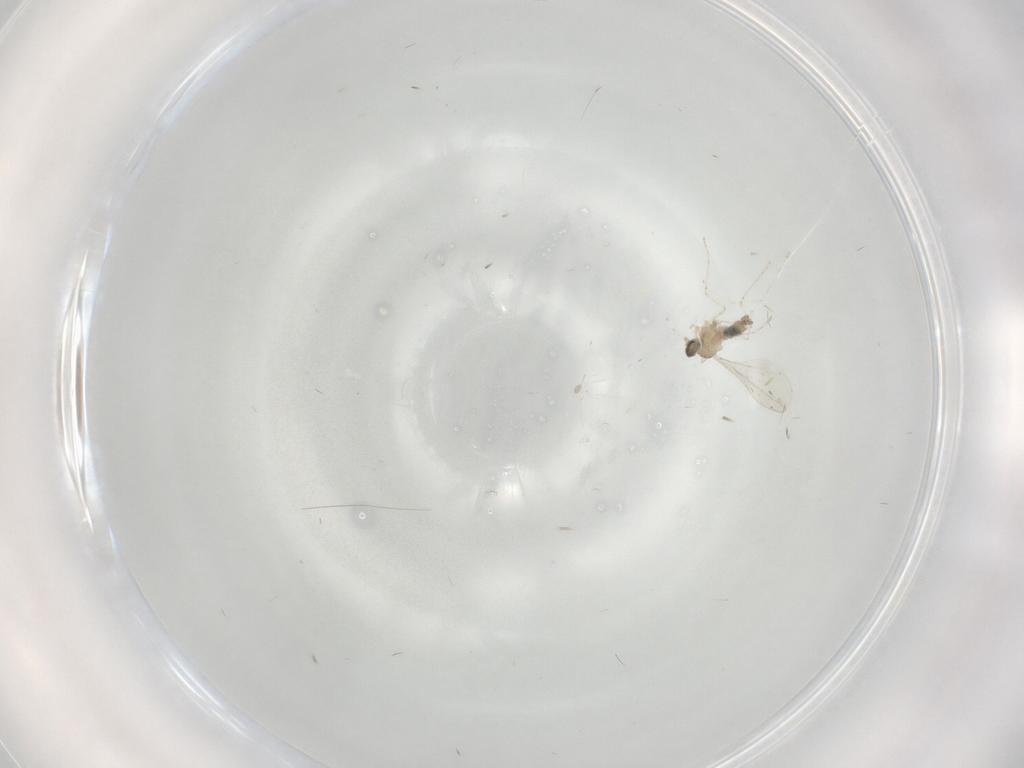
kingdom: Animalia
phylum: Arthropoda
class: Insecta
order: Diptera
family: Cecidomyiidae
